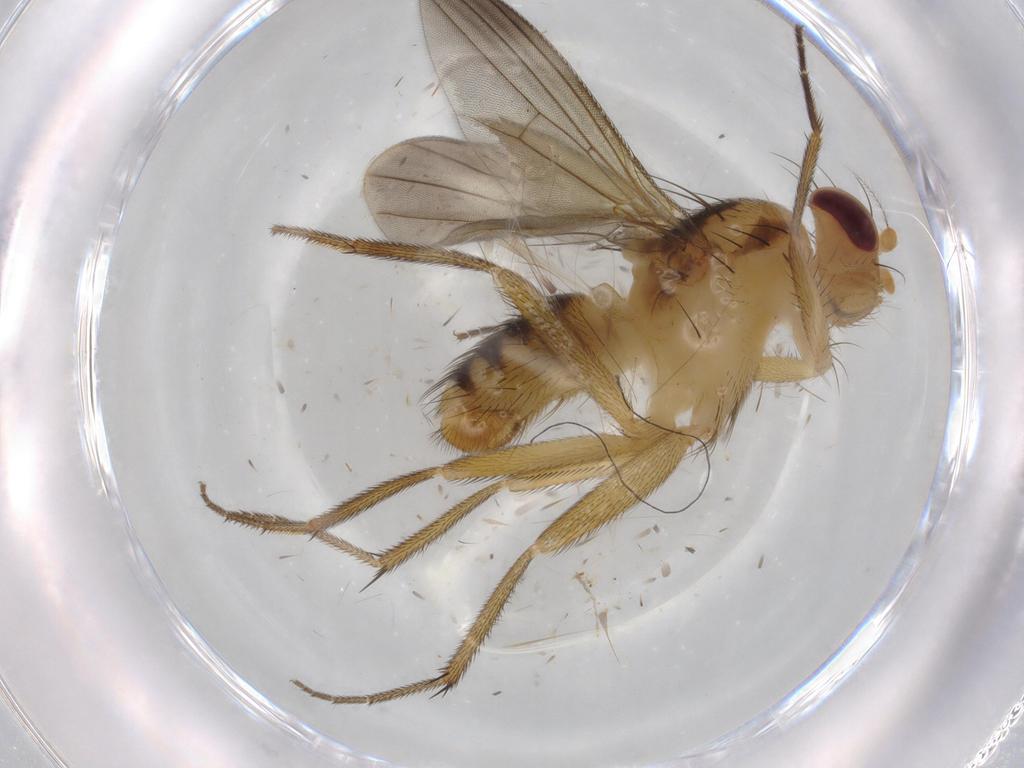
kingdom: Animalia
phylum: Arthropoda
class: Insecta
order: Diptera
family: Clusiidae
